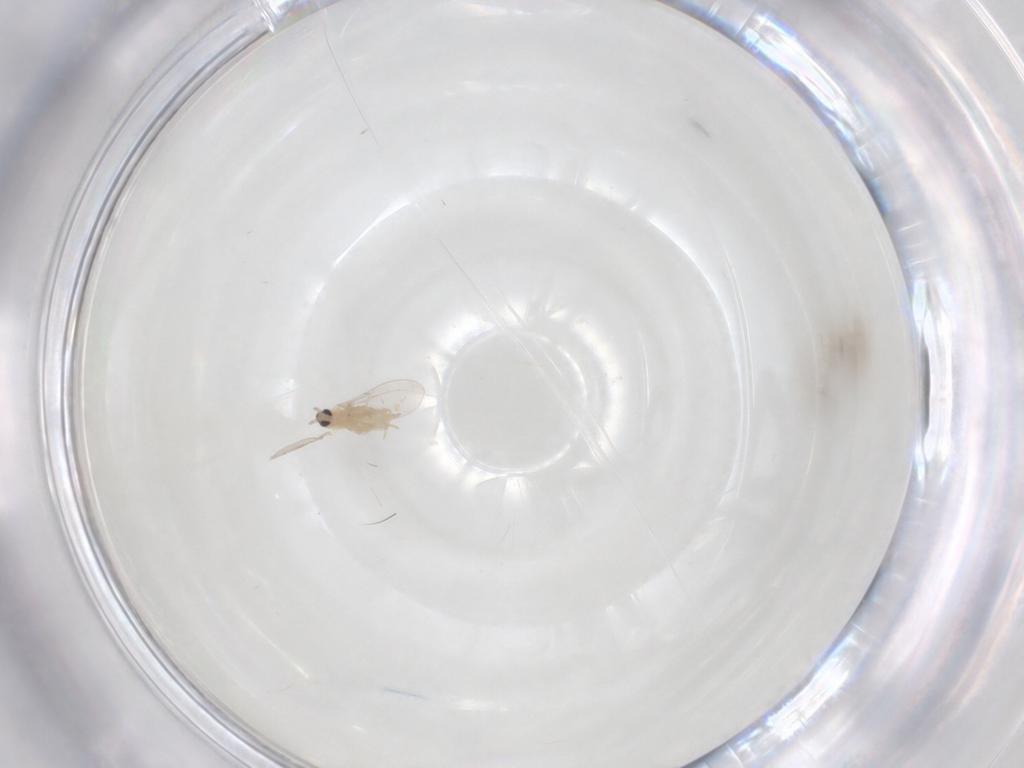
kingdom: Animalia
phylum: Arthropoda
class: Insecta
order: Diptera
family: Cecidomyiidae
